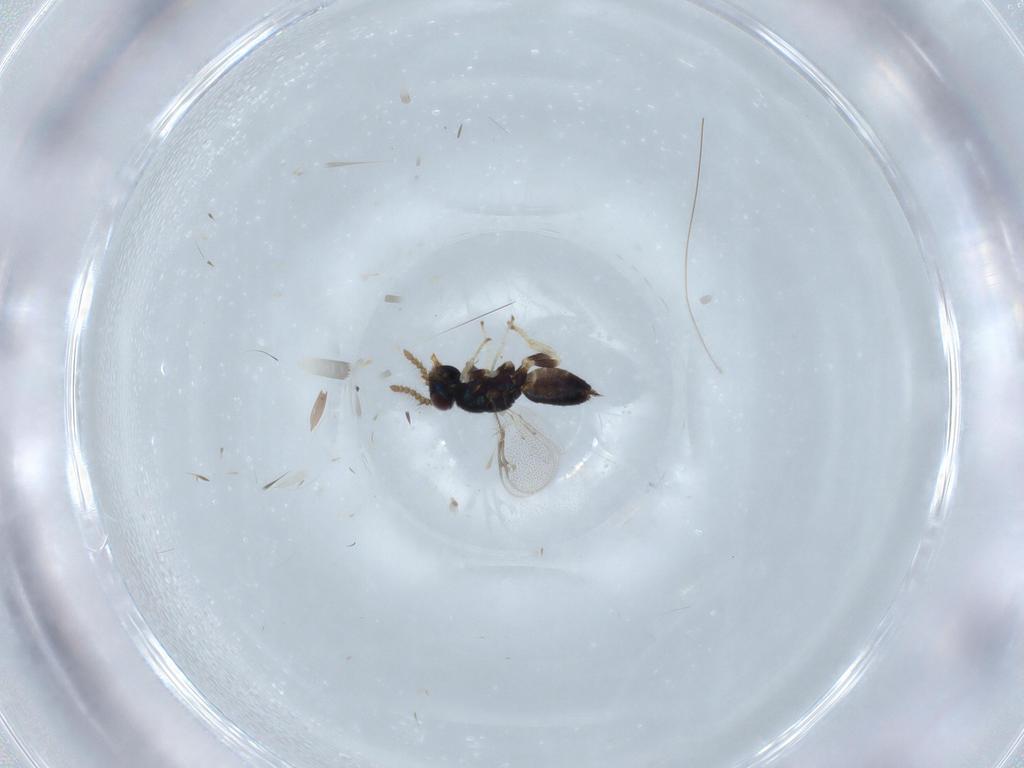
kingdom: Animalia
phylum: Arthropoda
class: Insecta
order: Hymenoptera
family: Pirenidae
